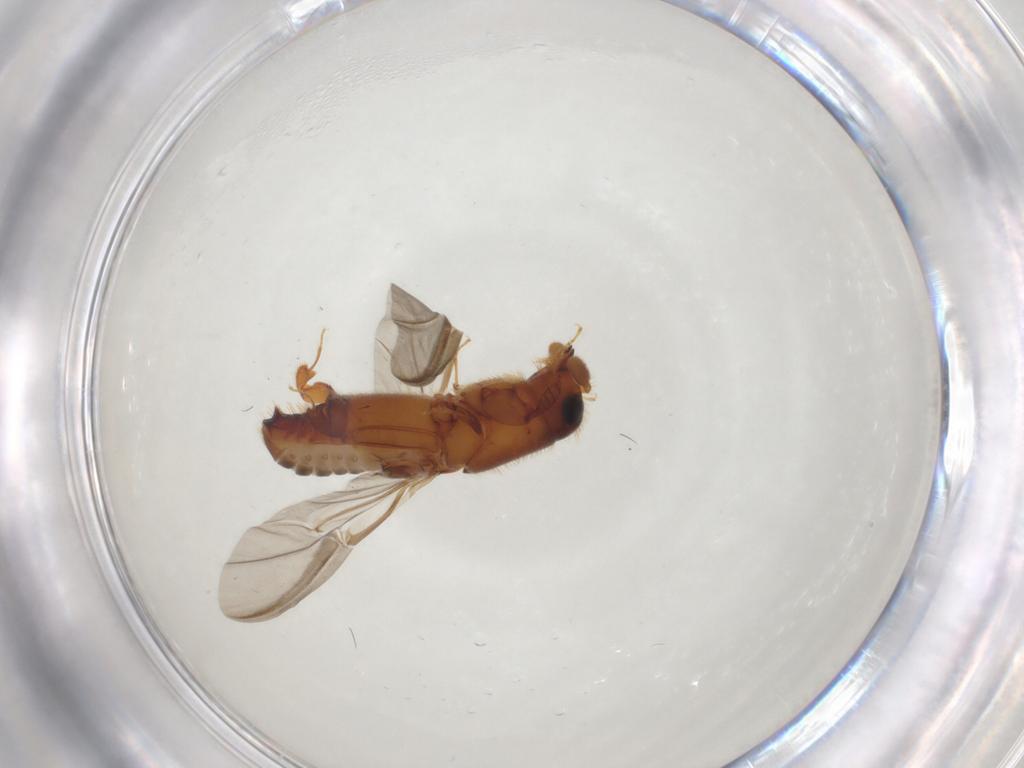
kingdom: Animalia
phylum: Arthropoda
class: Insecta
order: Coleoptera
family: Curculionidae
